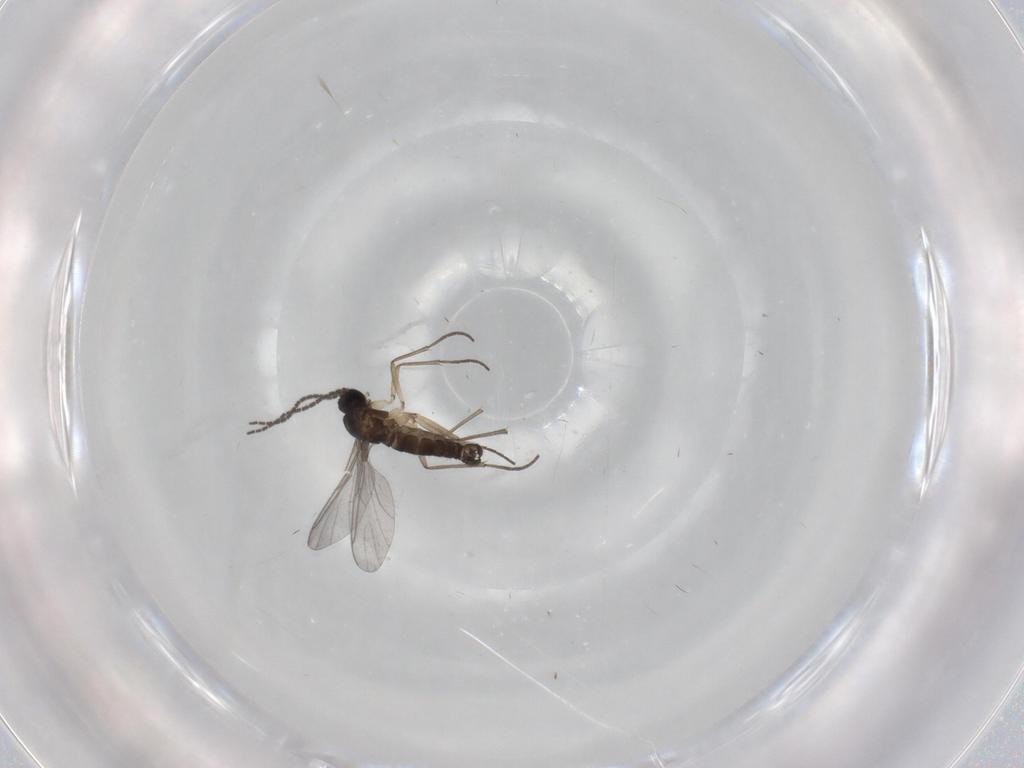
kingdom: Animalia
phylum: Arthropoda
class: Insecta
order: Diptera
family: Sciaridae
